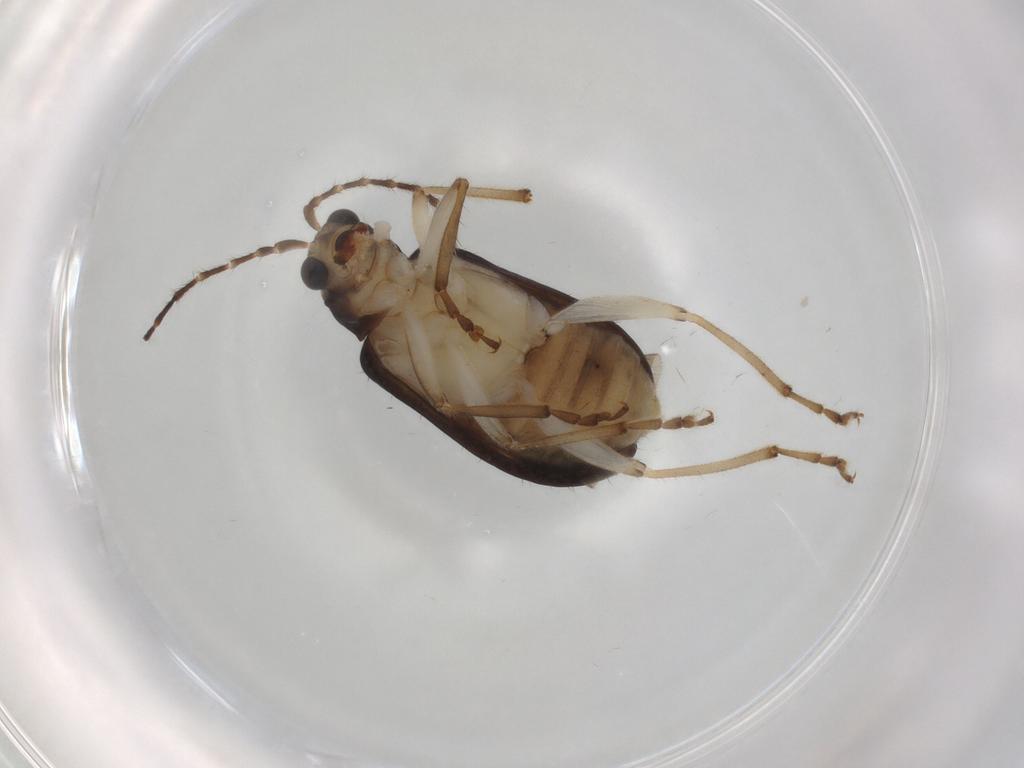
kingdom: Animalia
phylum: Arthropoda
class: Insecta
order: Coleoptera
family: Chrysomelidae
